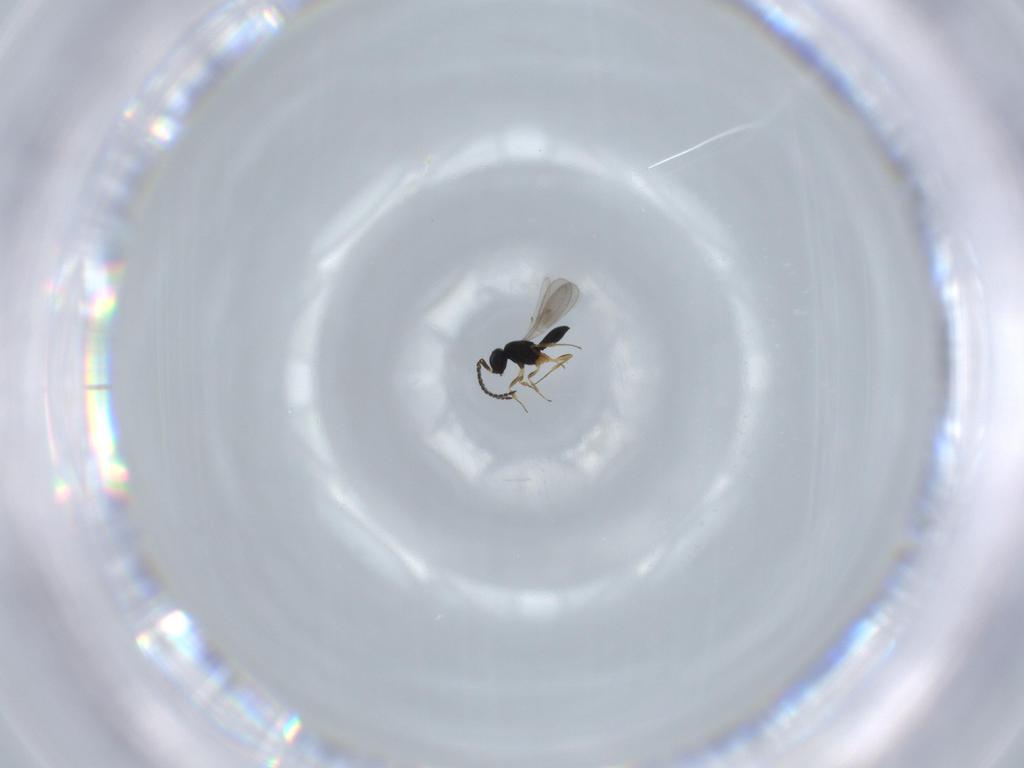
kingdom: Animalia
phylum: Arthropoda
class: Insecta
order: Hymenoptera
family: Scelionidae
